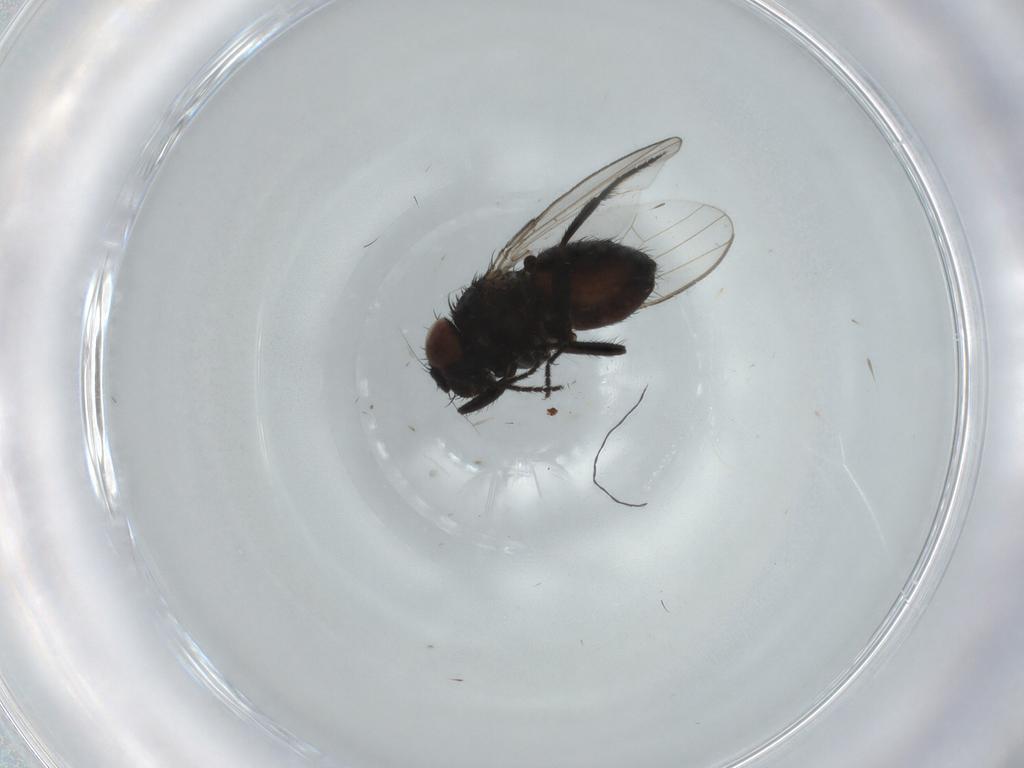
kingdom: Animalia
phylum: Arthropoda
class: Insecta
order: Diptera
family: Milichiidae
